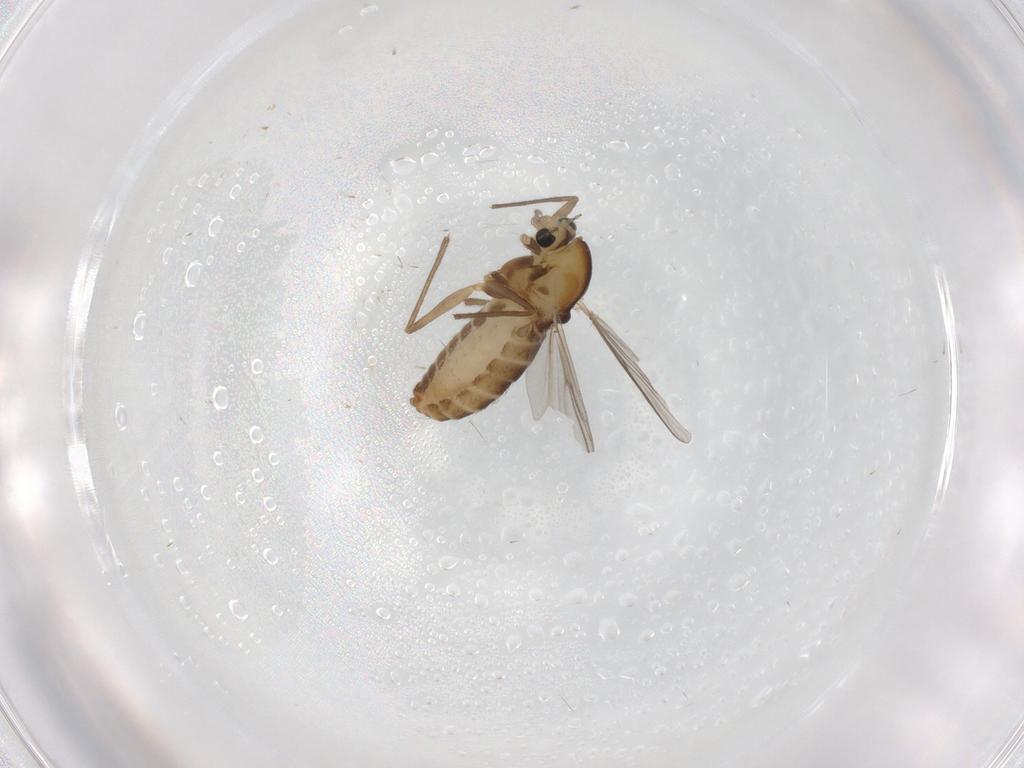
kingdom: Animalia
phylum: Arthropoda
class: Insecta
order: Diptera
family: Chironomidae
